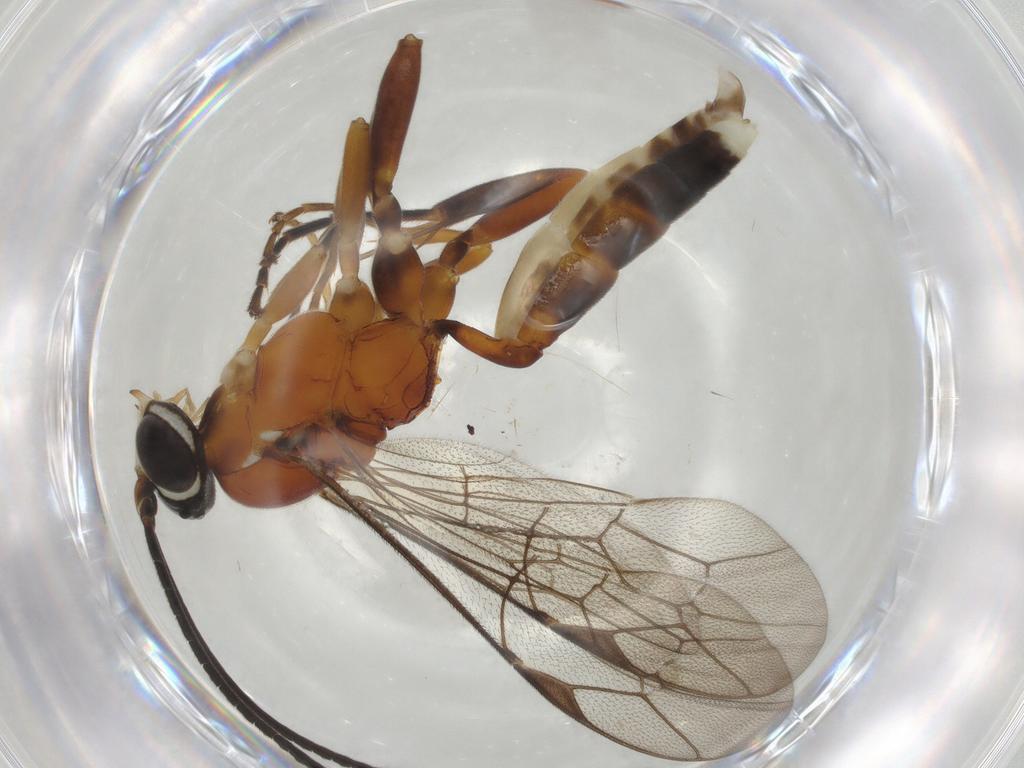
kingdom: Animalia
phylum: Arthropoda
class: Insecta
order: Hymenoptera
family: Ichneumonidae
